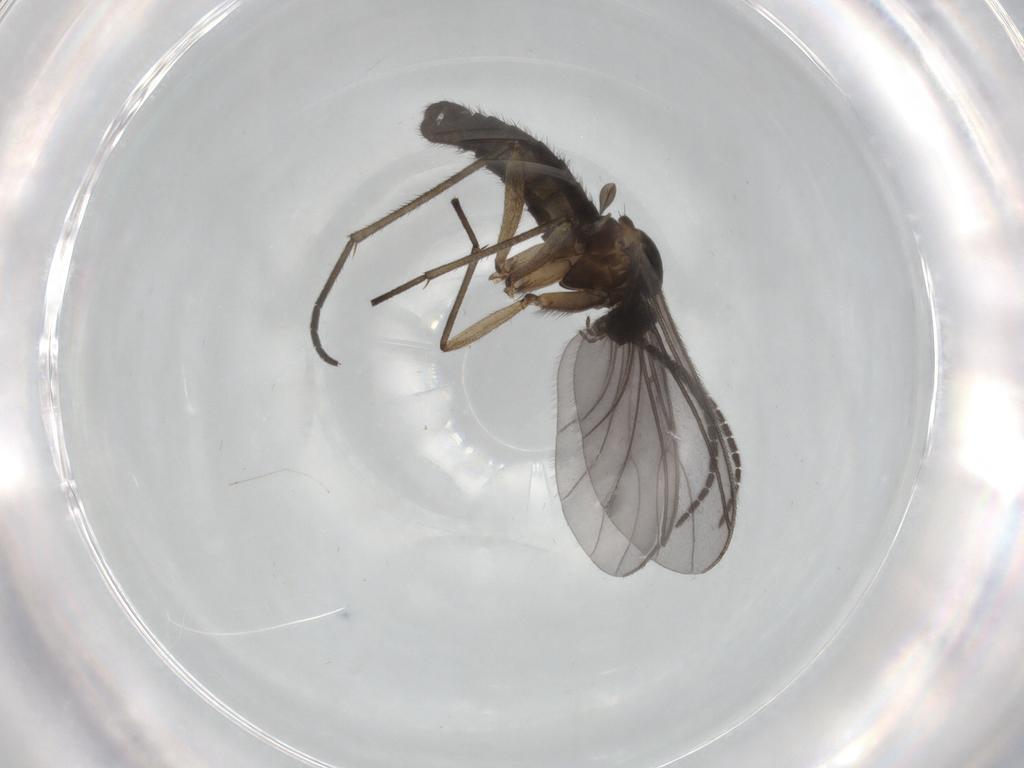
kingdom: Animalia
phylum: Arthropoda
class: Insecta
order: Diptera
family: Sciaridae
